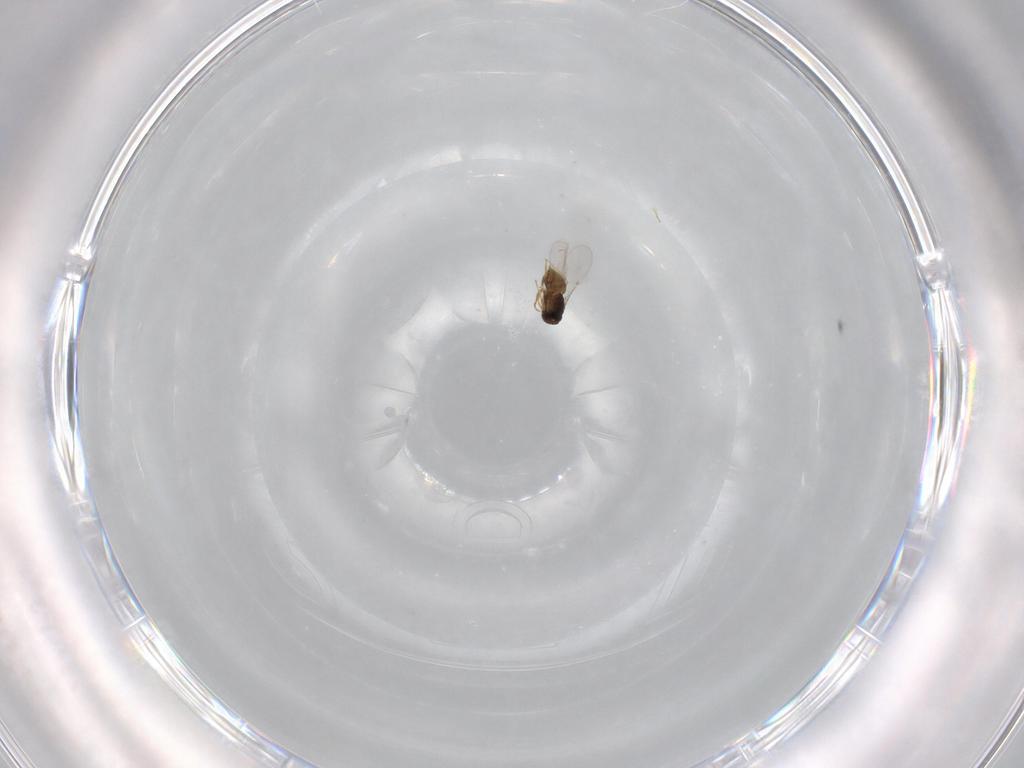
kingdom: Animalia
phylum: Arthropoda
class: Insecta
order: Hymenoptera
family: Encyrtidae
